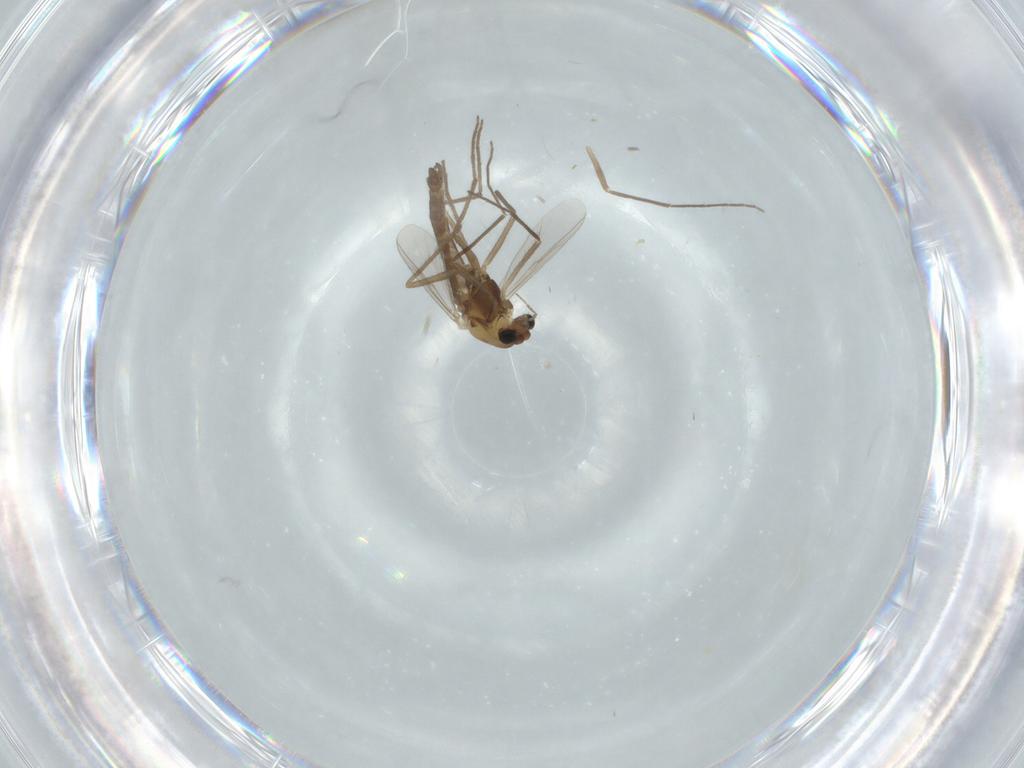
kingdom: Animalia
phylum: Arthropoda
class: Insecta
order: Diptera
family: Chironomidae
